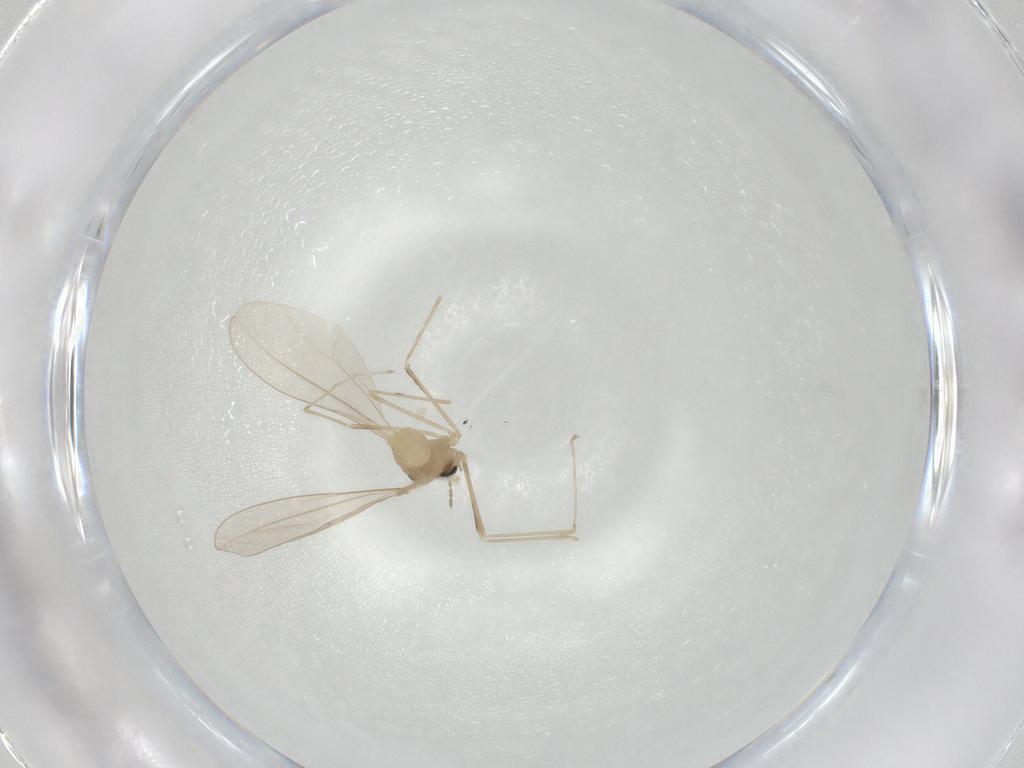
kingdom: Animalia
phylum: Arthropoda
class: Insecta
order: Diptera
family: Cecidomyiidae
